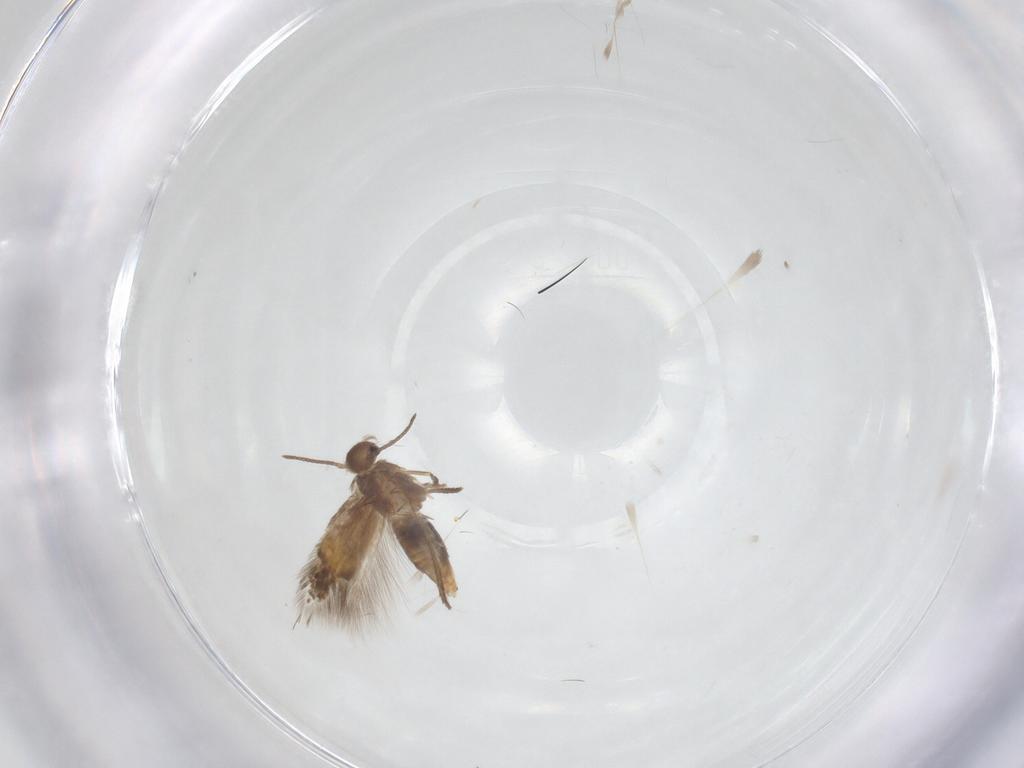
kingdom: Animalia
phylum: Arthropoda
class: Insecta
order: Lepidoptera
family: Heliozelidae
